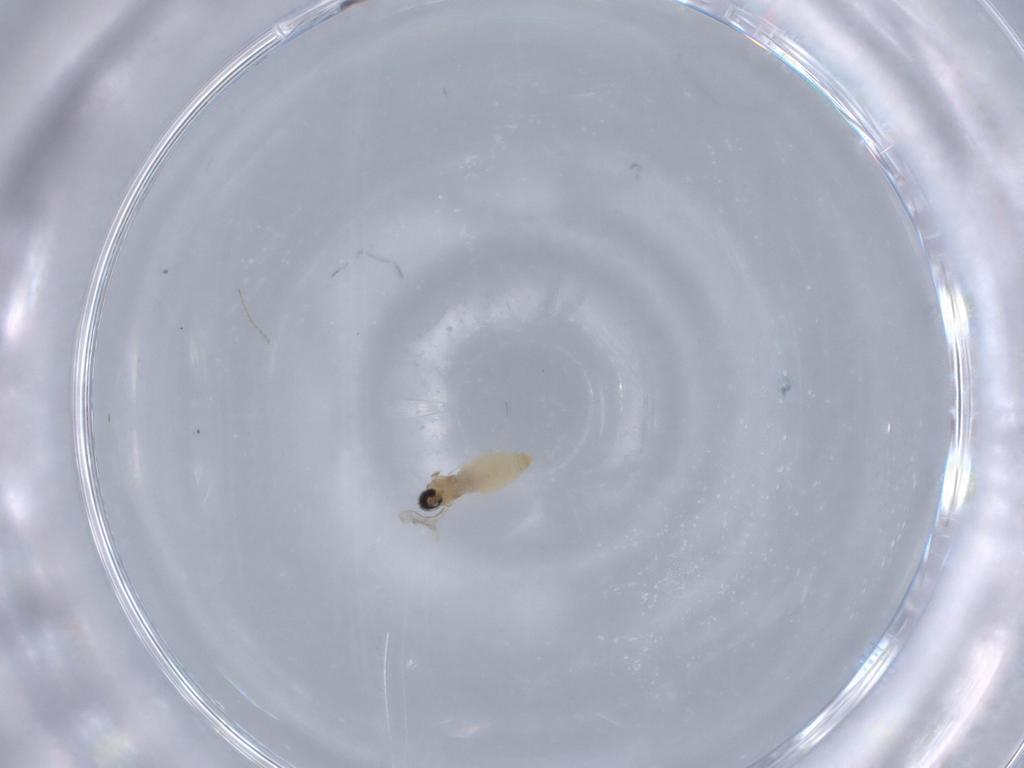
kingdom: Animalia
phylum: Arthropoda
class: Insecta
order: Diptera
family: Cecidomyiidae
